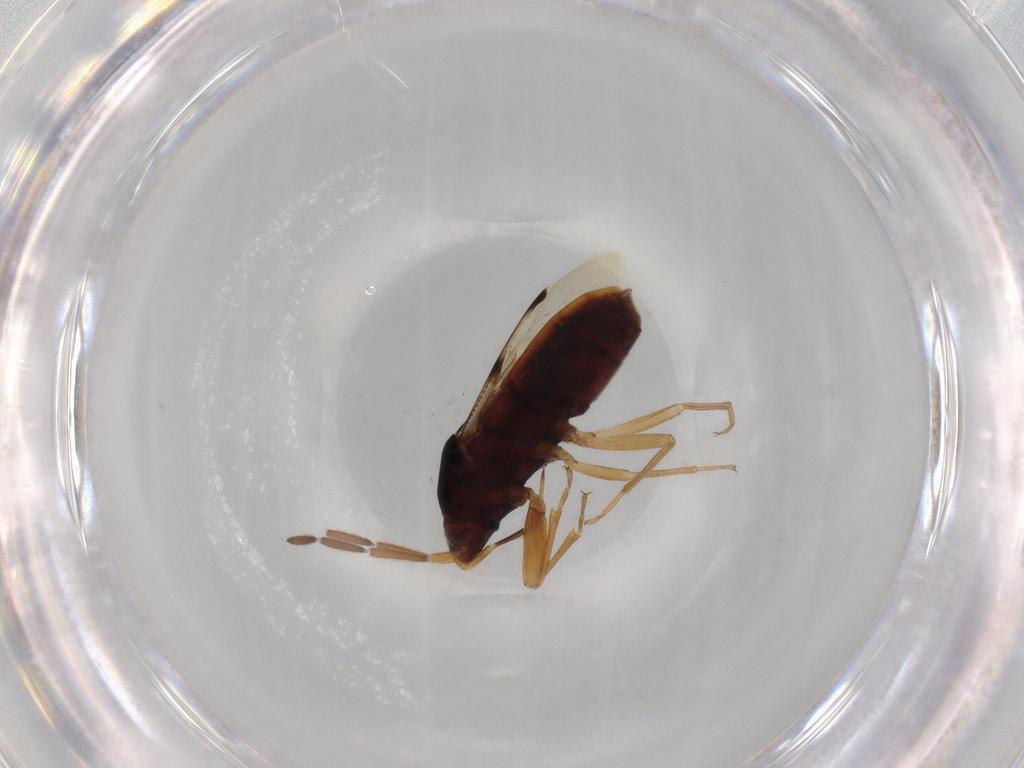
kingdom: Animalia
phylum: Arthropoda
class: Insecta
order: Hemiptera
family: Rhyparochromidae
